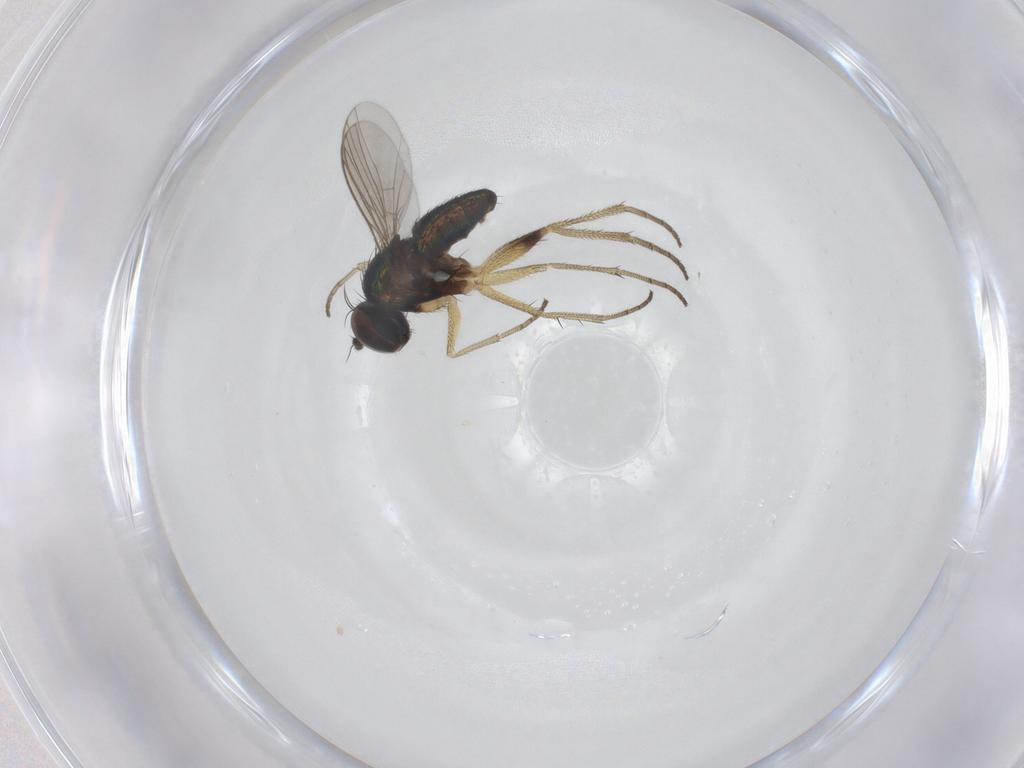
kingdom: Animalia
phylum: Arthropoda
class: Insecta
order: Diptera
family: Dolichopodidae
